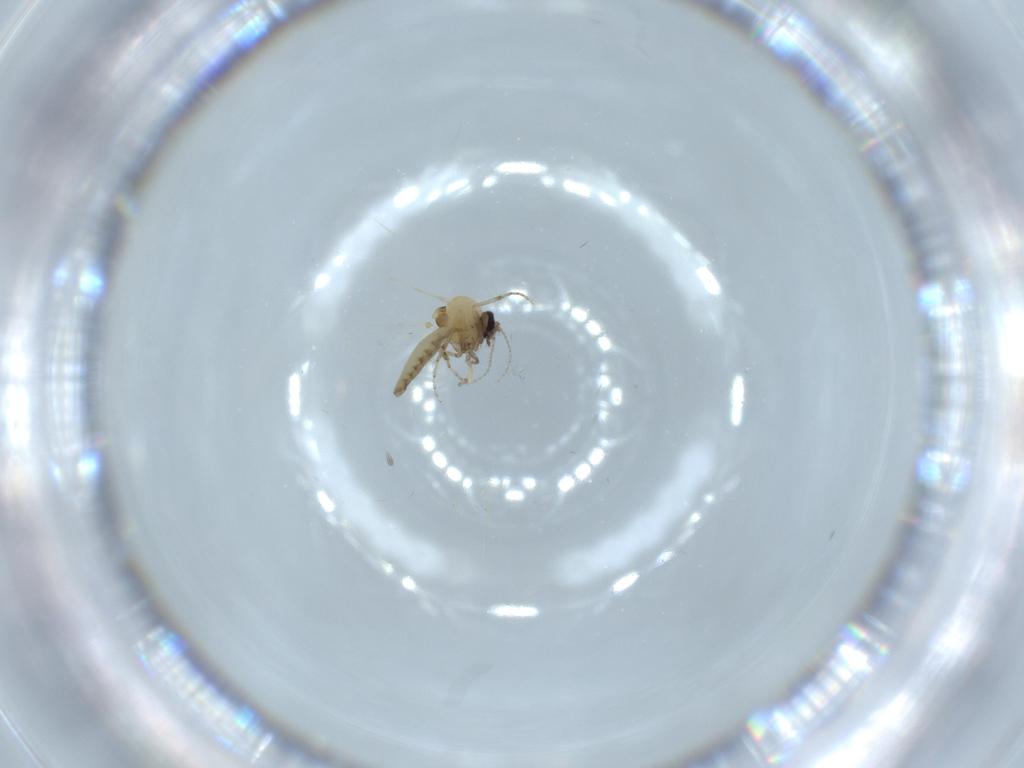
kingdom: Animalia
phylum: Arthropoda
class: Insecta
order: Diptera
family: Ceratopogonidae
